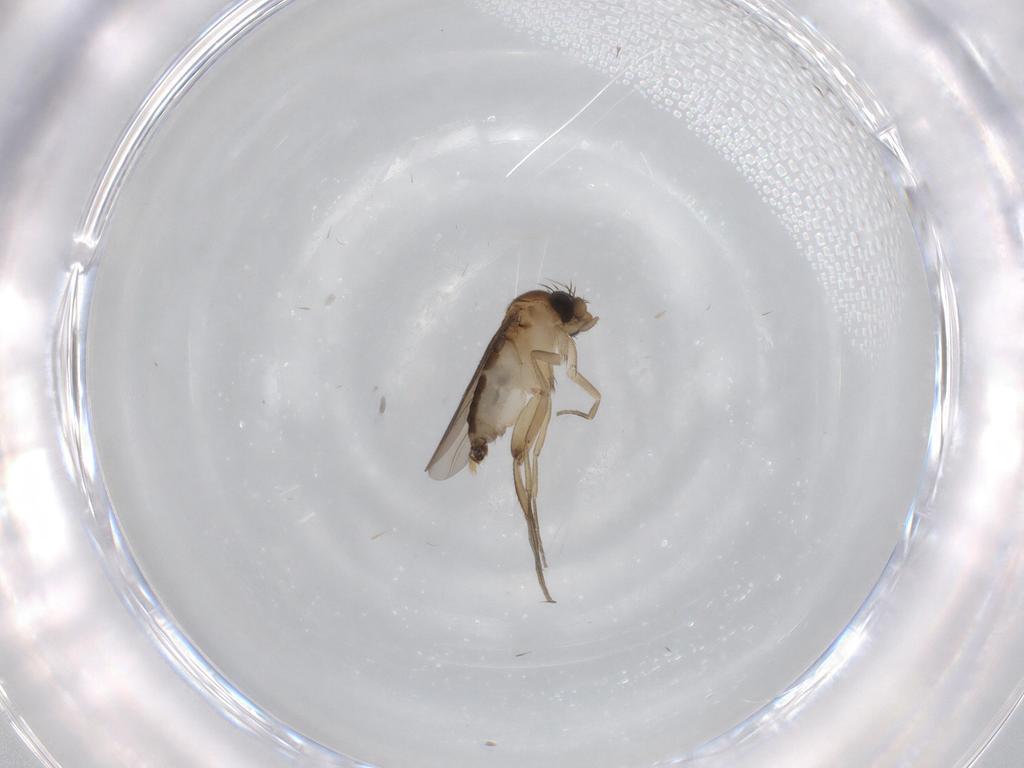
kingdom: Animalia
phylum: Arthropoda
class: Insecta
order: Diptera
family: Phoridae
